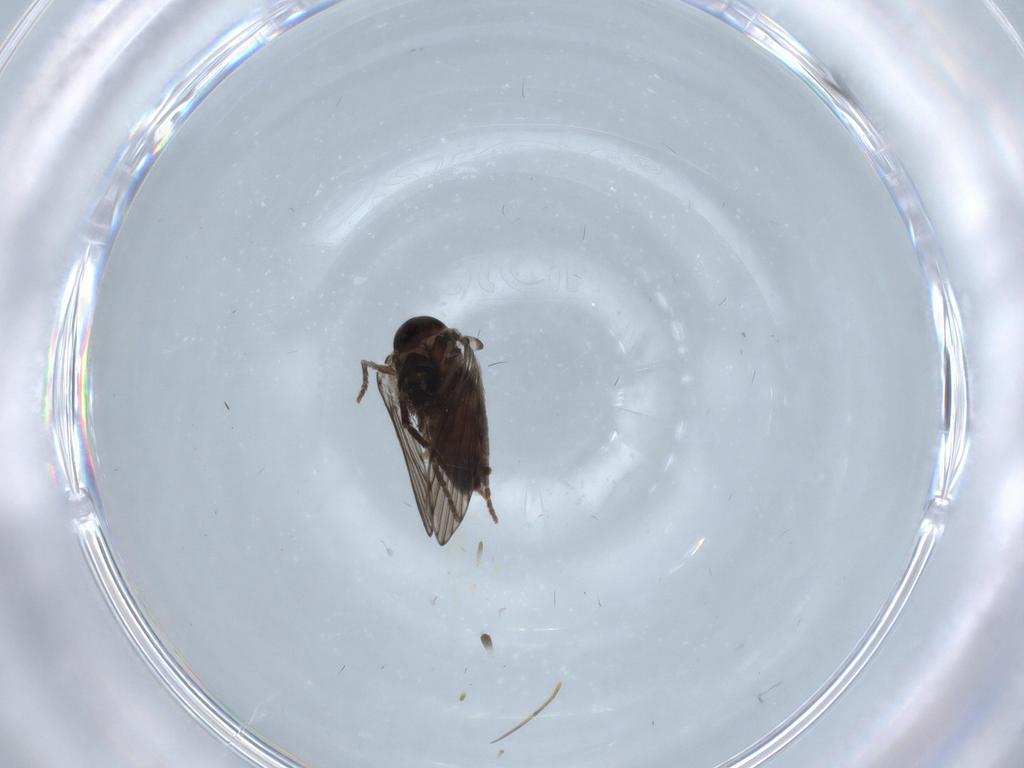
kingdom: Animalia
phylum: Arthropoda
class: Insecta
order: Diptera
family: Psychodidae
